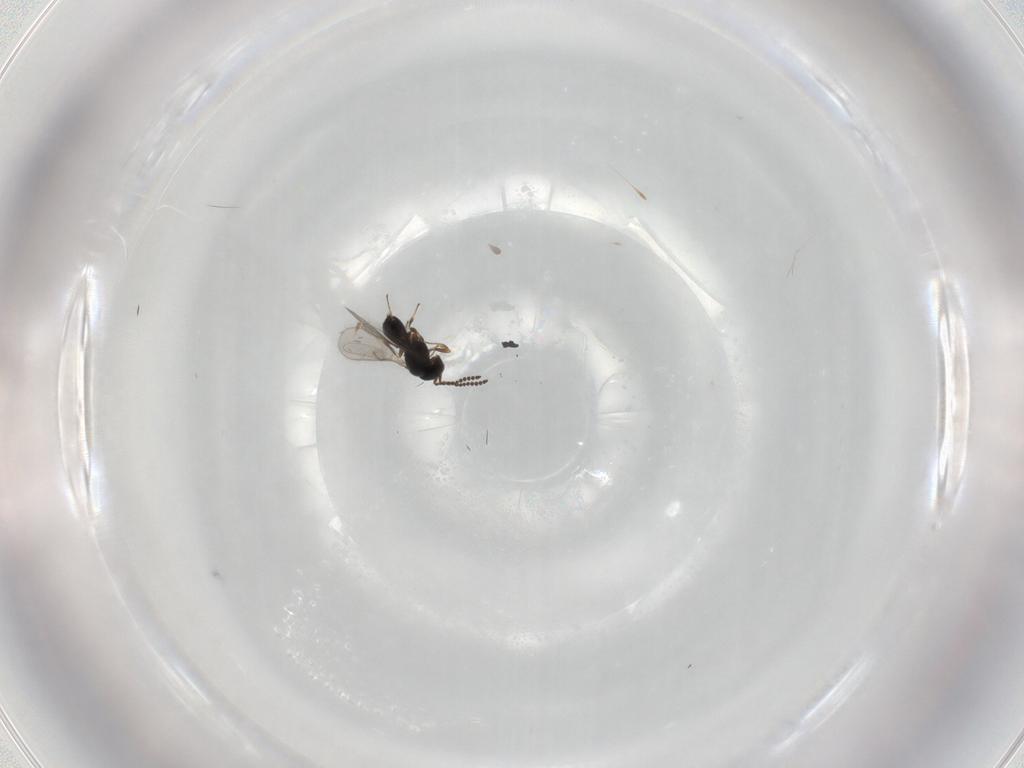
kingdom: Animalia
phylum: Arthropoda
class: Insecta
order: Hymenoptera
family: Scelionidae
